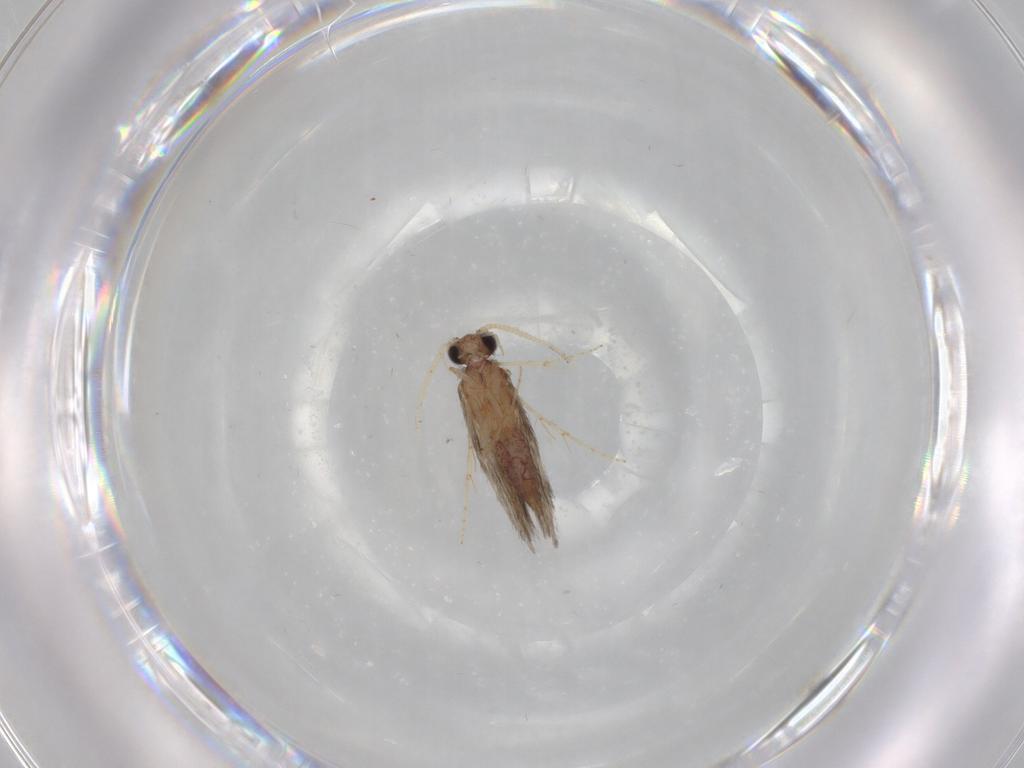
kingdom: Animalia
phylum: Arthropoda
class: Insecta
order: Trichoptera
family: Hydroptilidae
